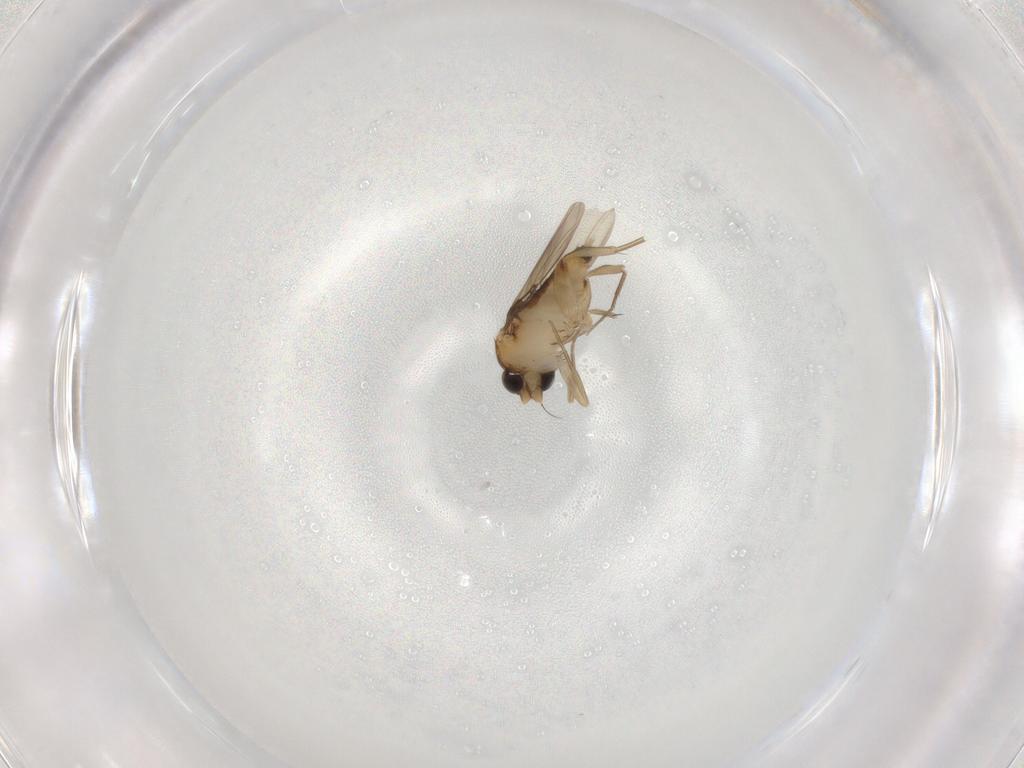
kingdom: Animalia
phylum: Arthropoda
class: Insecta
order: Diptera
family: Phoridae
